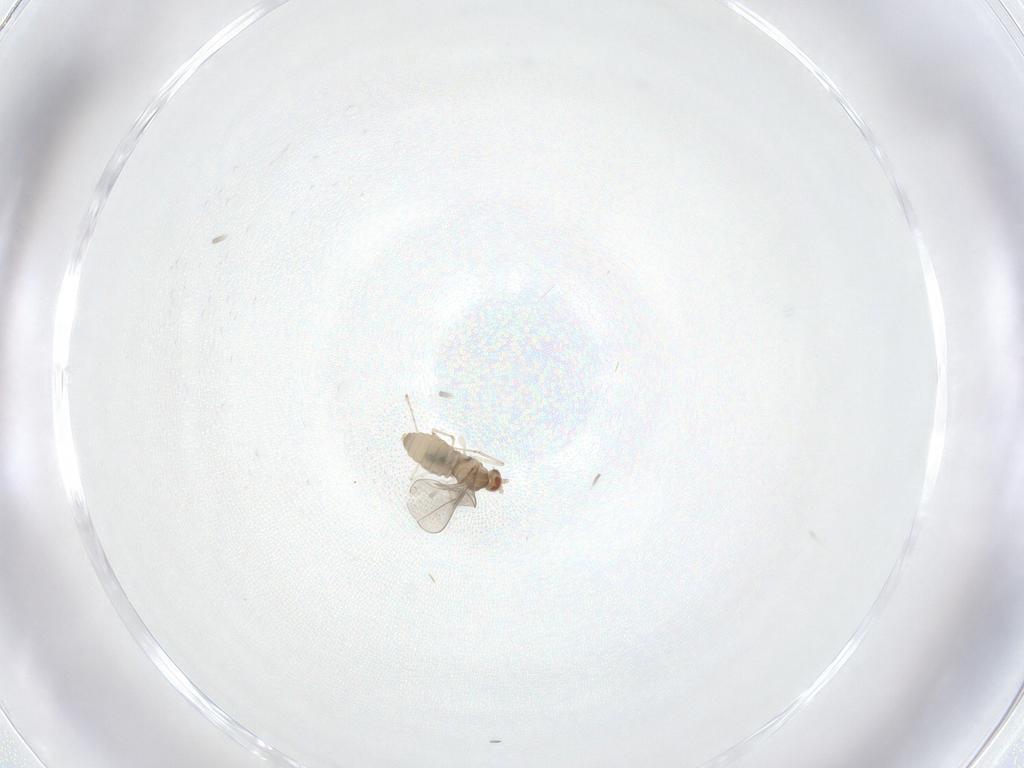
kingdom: Animalia
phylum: Arthropoda
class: Insecta
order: Diptera
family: Cecidomyiidae
